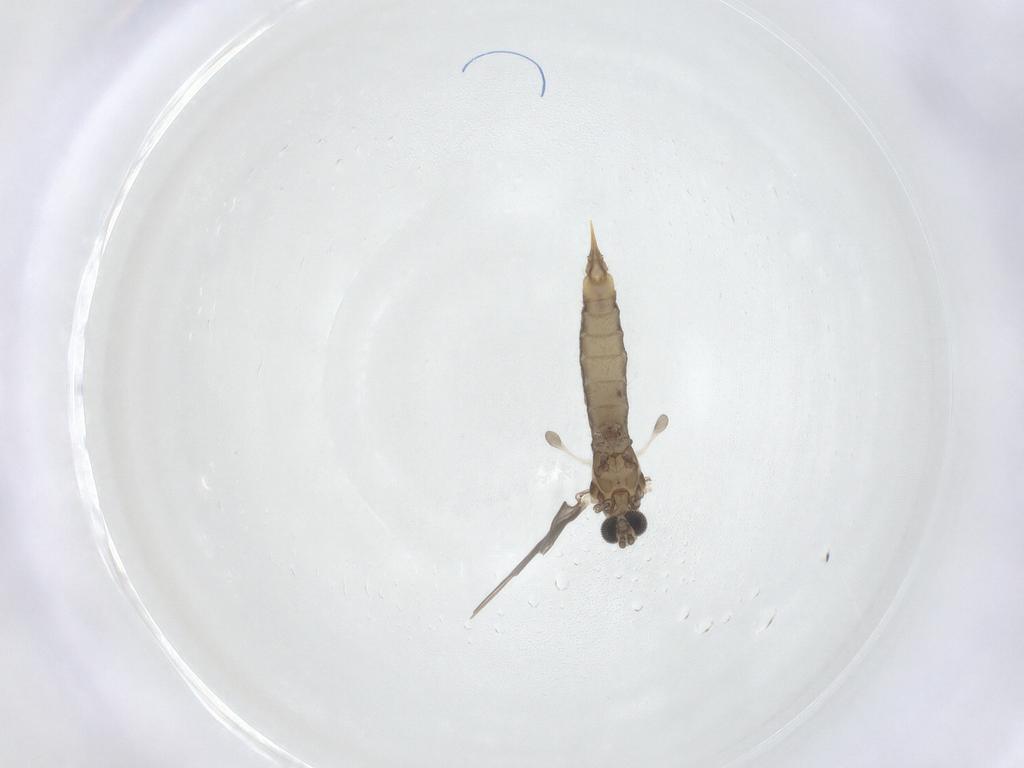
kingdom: Animalia
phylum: Arthropoda
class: Insecta
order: Diptera
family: Limoniidae
